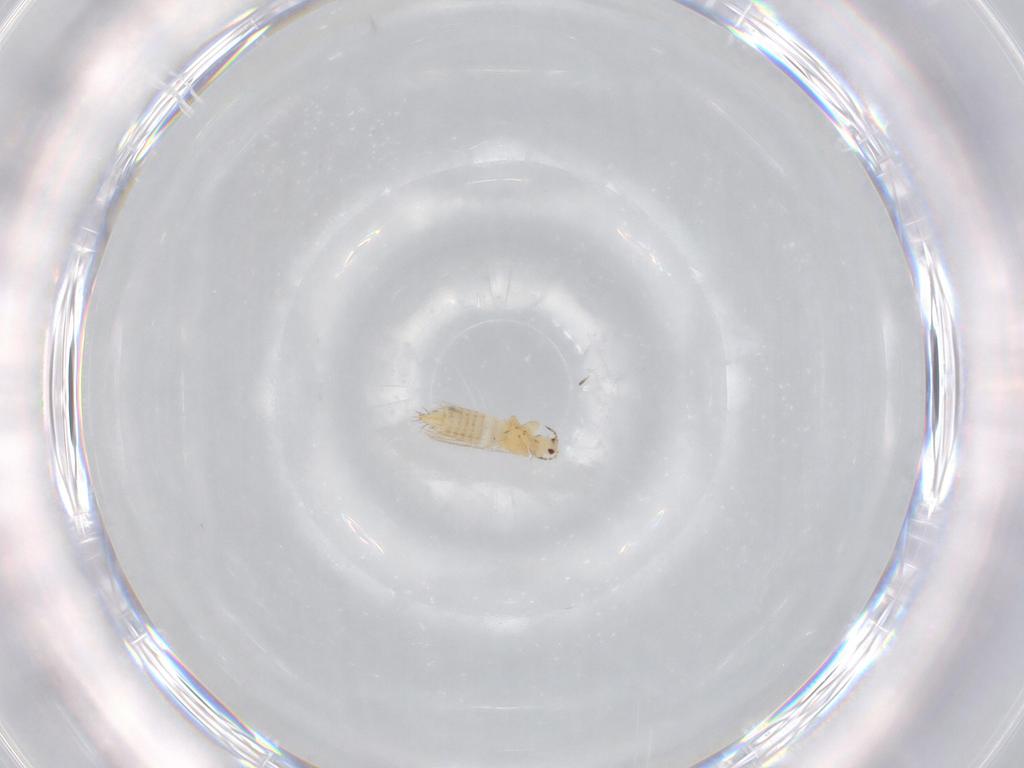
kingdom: Animalia
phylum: Arthropoda
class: Insecta
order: Thysanoptera
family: Thripidae
